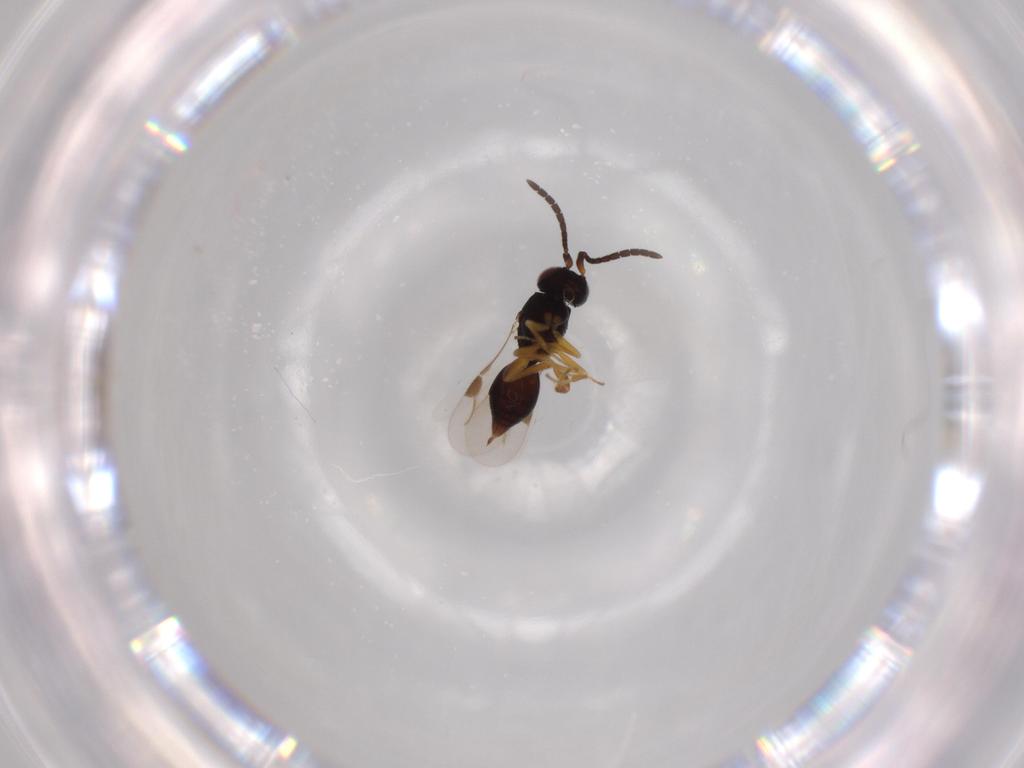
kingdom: Animalia
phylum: Arthropoda
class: Insecta
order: Hymenoptera
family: Megaspilidae
